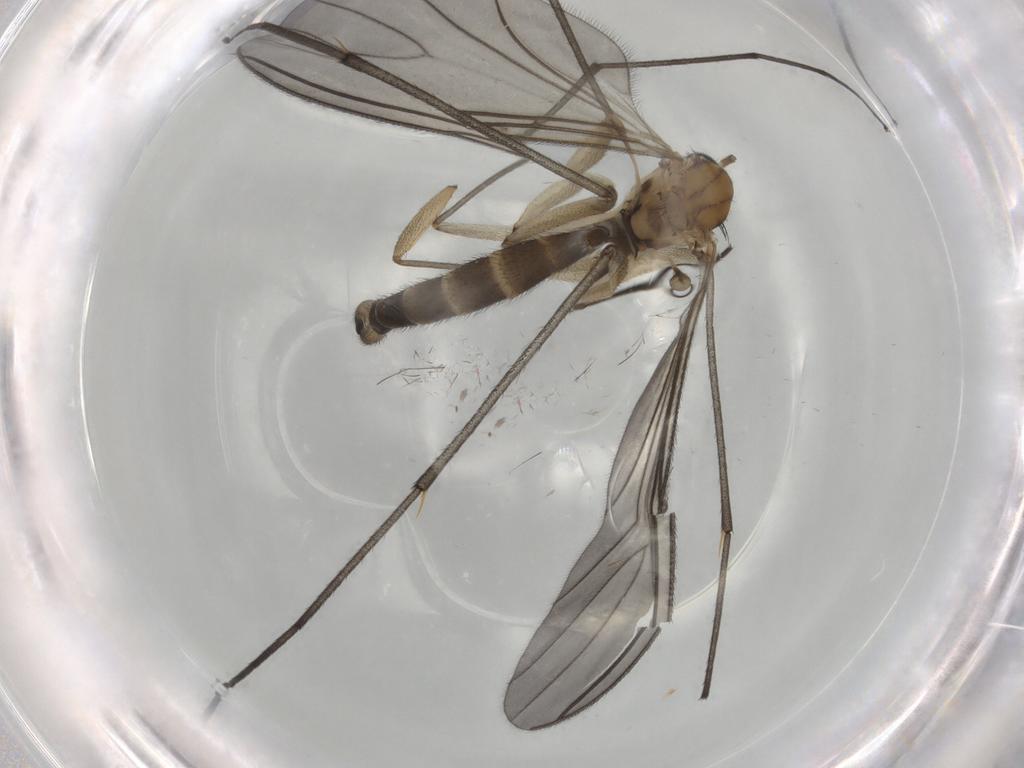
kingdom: Animalia
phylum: Arthropoda
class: Insecta
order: Diptera
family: Sciaridae
